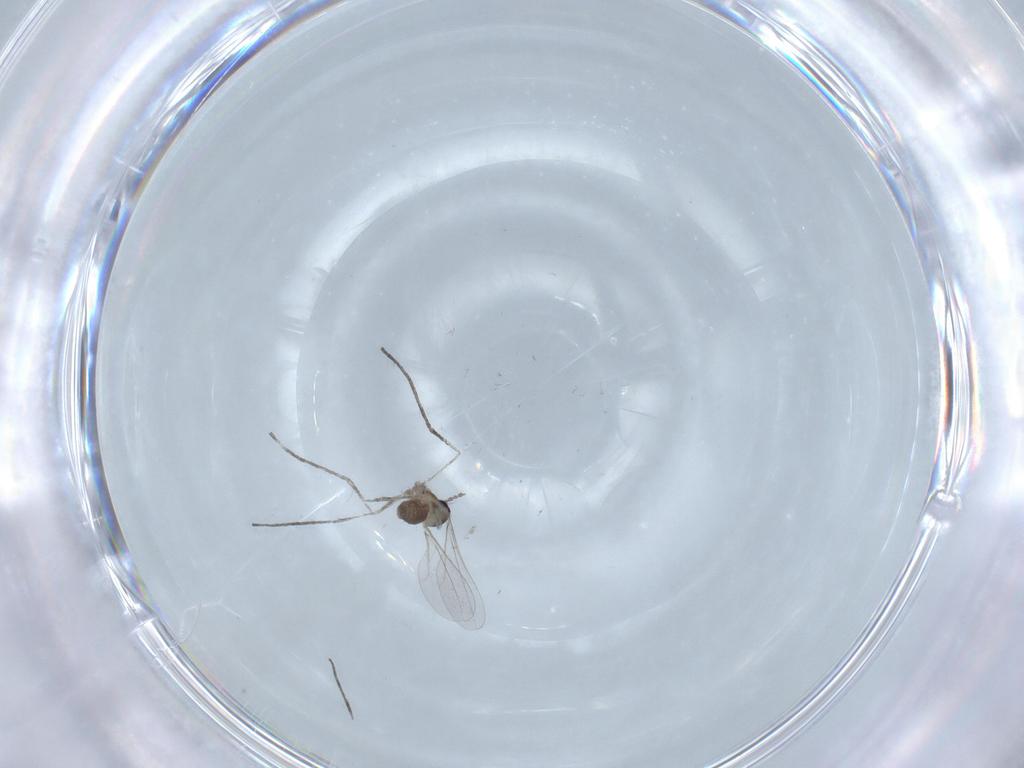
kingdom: Animalia
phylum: Arthropoda
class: Insecta
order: Diptera
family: Cecidomyiidae
